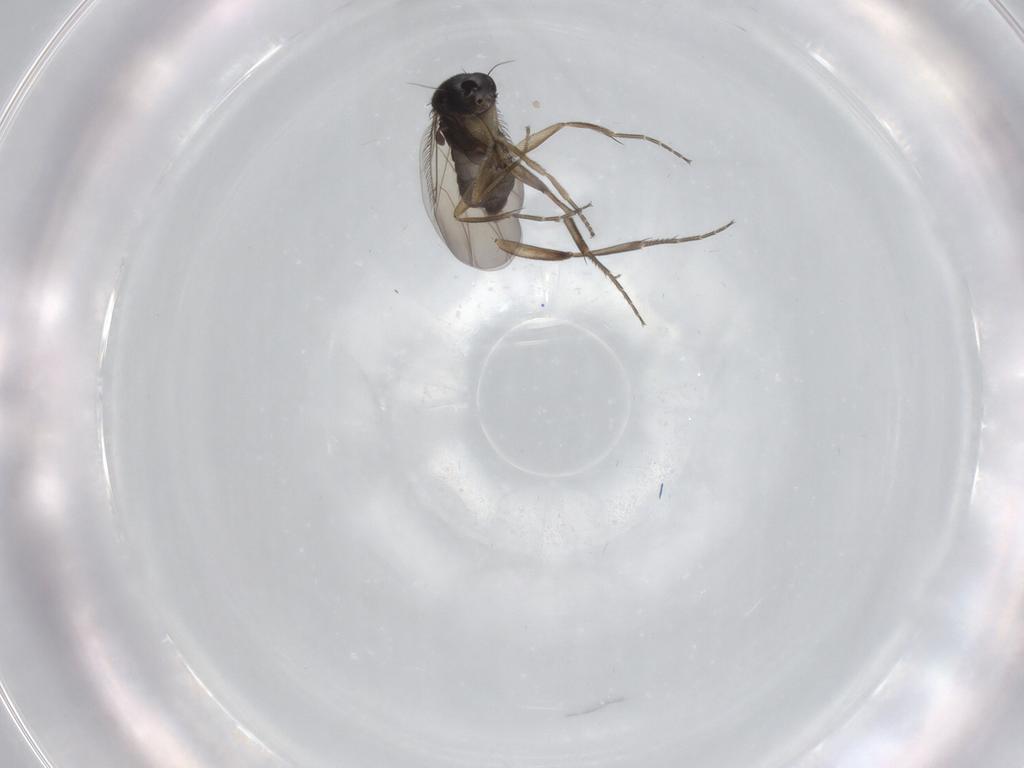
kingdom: Animalia
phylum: Arthropoda
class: Insecta
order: Diptera
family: Phoridae
